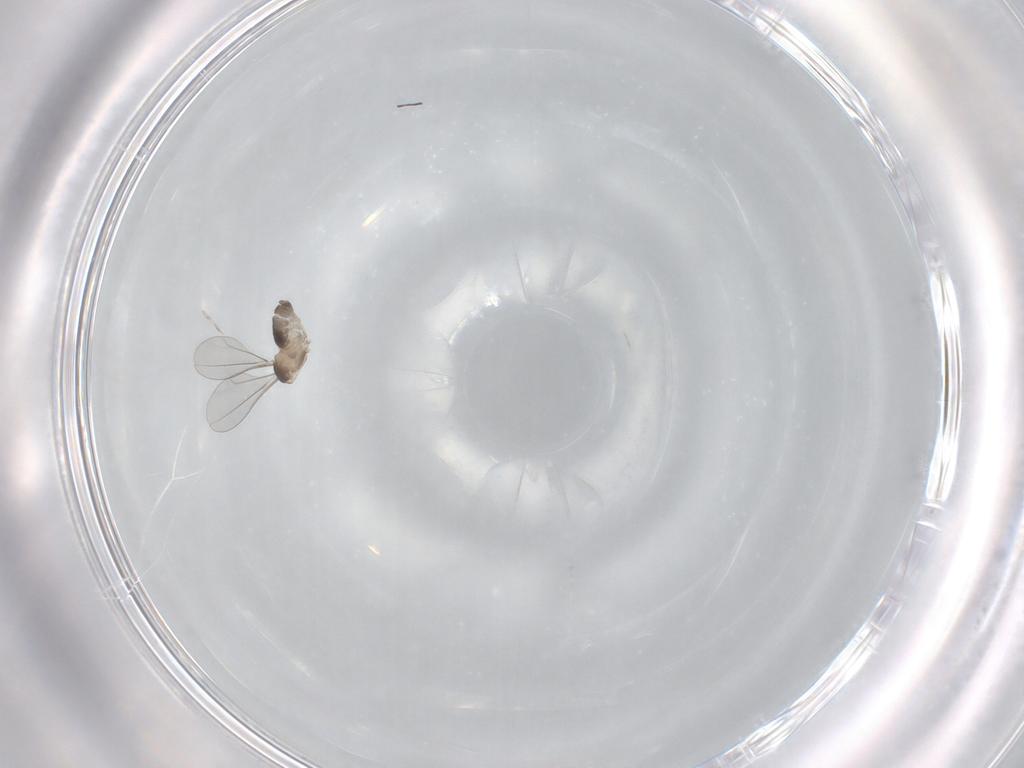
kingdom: Animalia
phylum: Arthropoda
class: Insecta
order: Diptera
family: Cecidomyiidae
